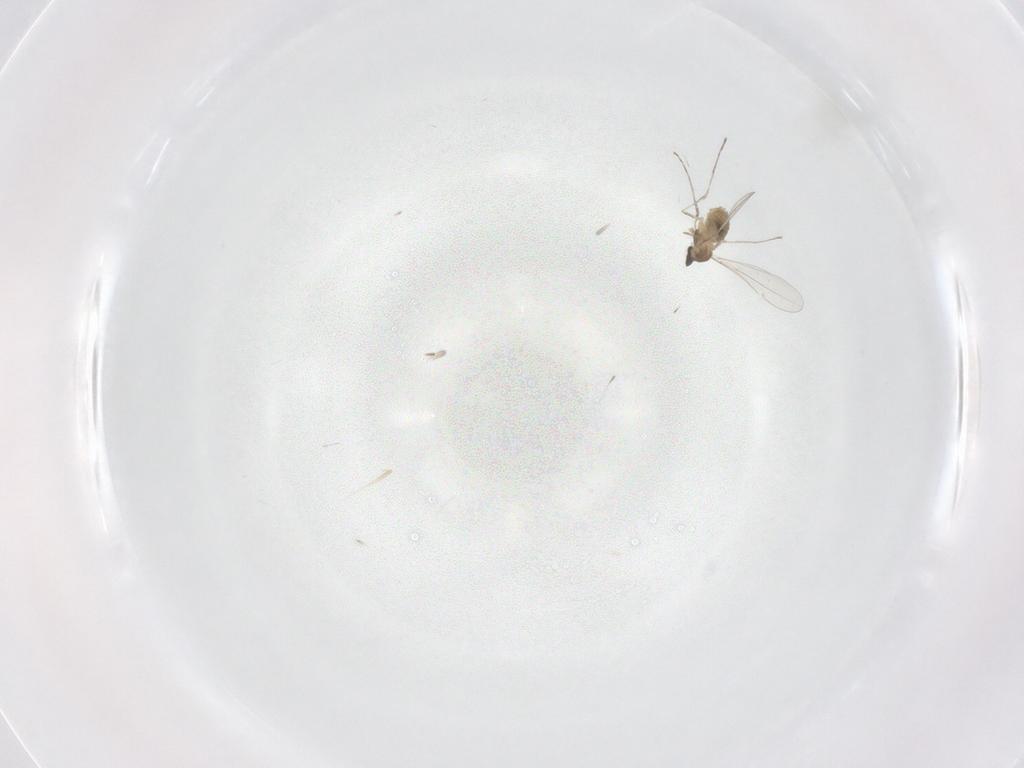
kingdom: Animalia
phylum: Arthropoda
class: Insecta
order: Diptera
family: Cecidomyiidae
